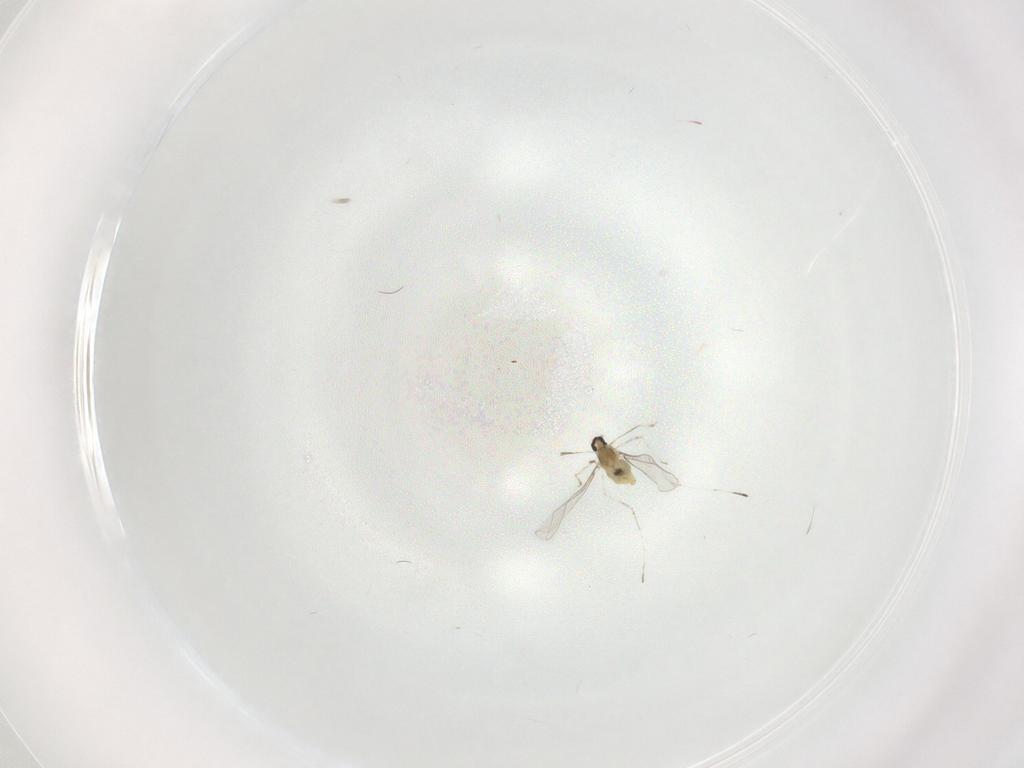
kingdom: Animalia
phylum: Arthropoda
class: Insecta
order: Diptera
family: Cecidomyiidae
